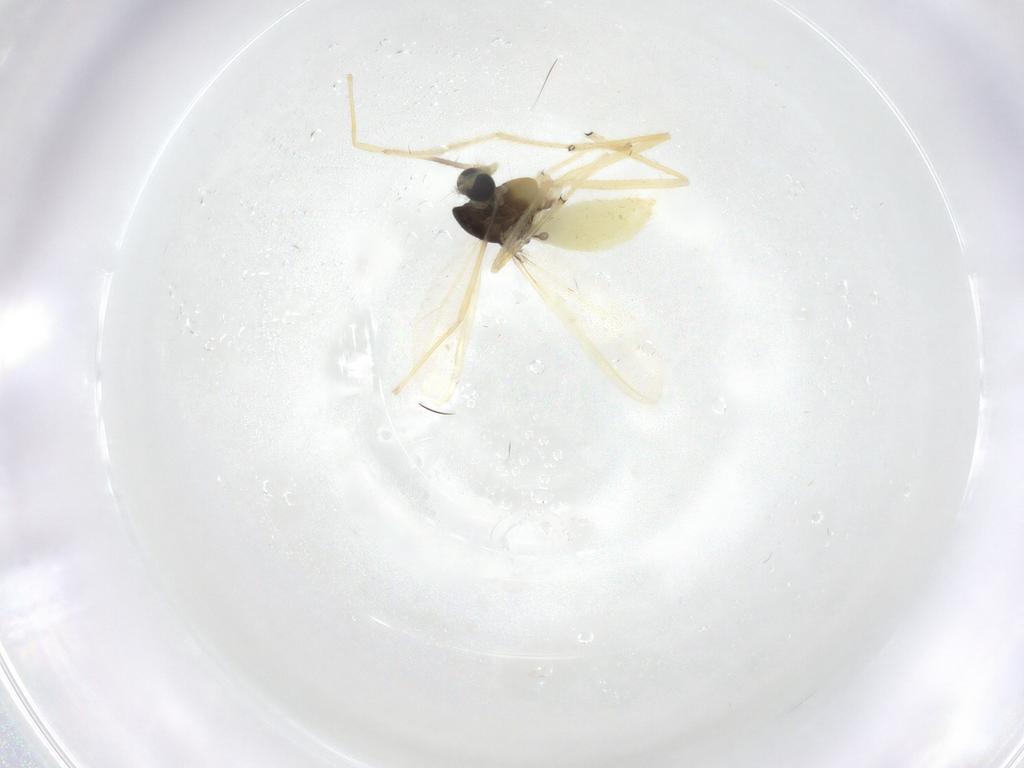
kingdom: Animalia
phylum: Arthropoda
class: Insecta
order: Diptera
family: Chironomidae
